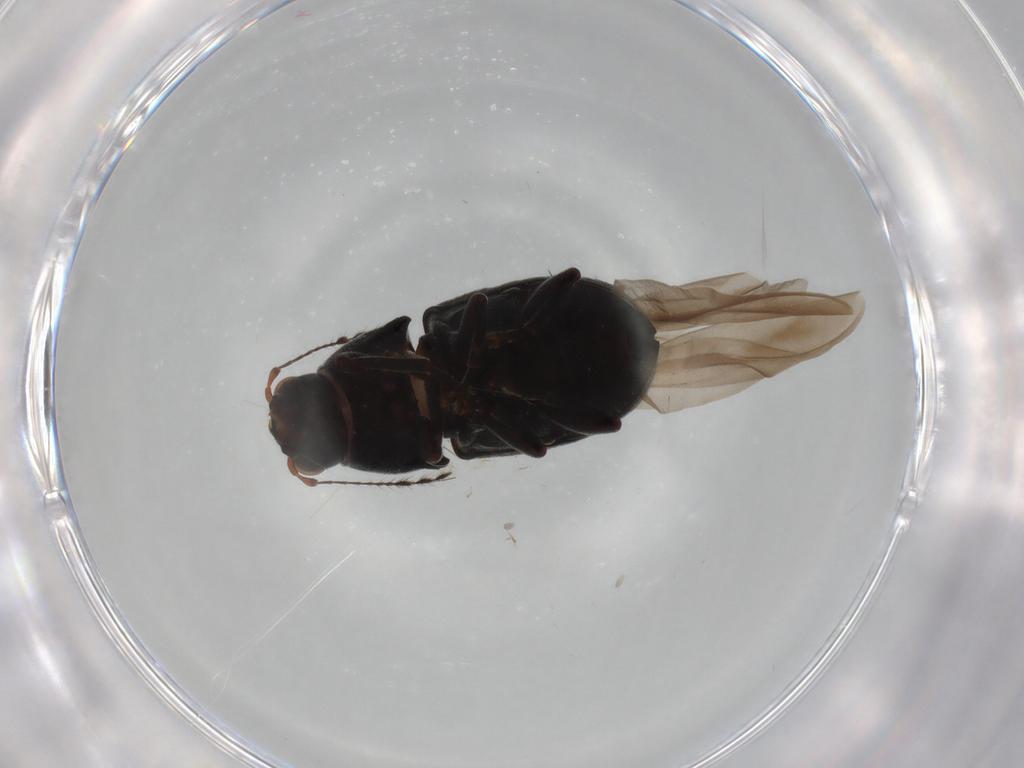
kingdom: Animalia
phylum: Arthropoda
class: Insecta
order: Coleoptera
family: Anthribidae
